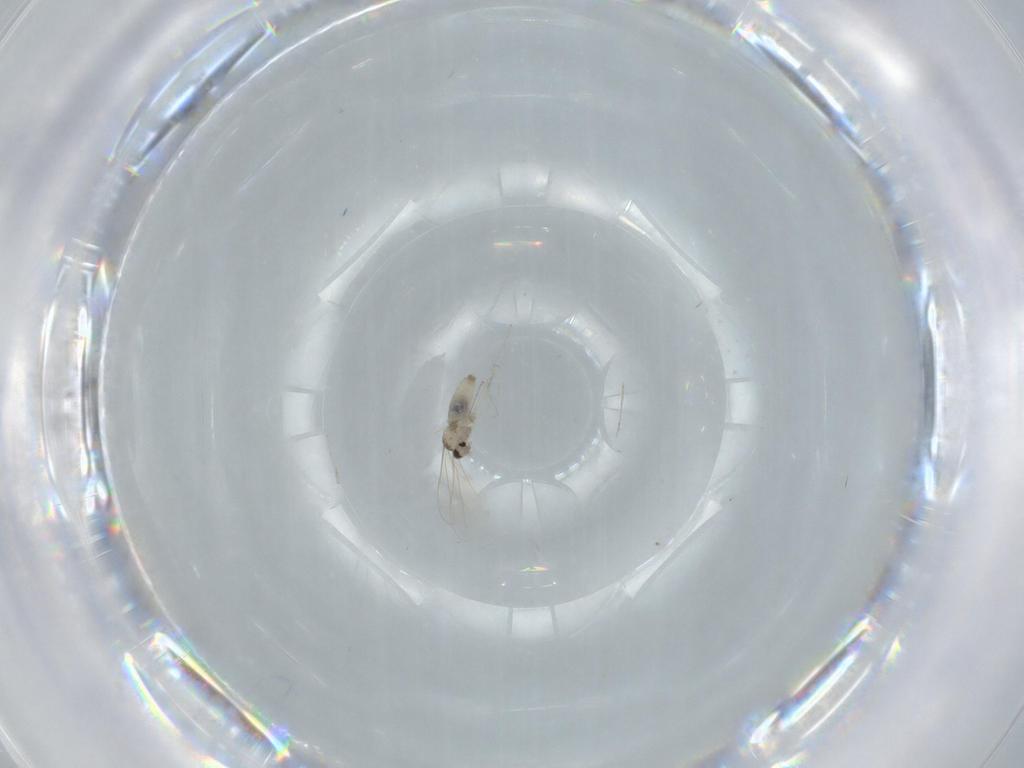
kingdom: Animalia
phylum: Arthropoda
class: Insecta
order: Diptera
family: Cecidomyiidae
